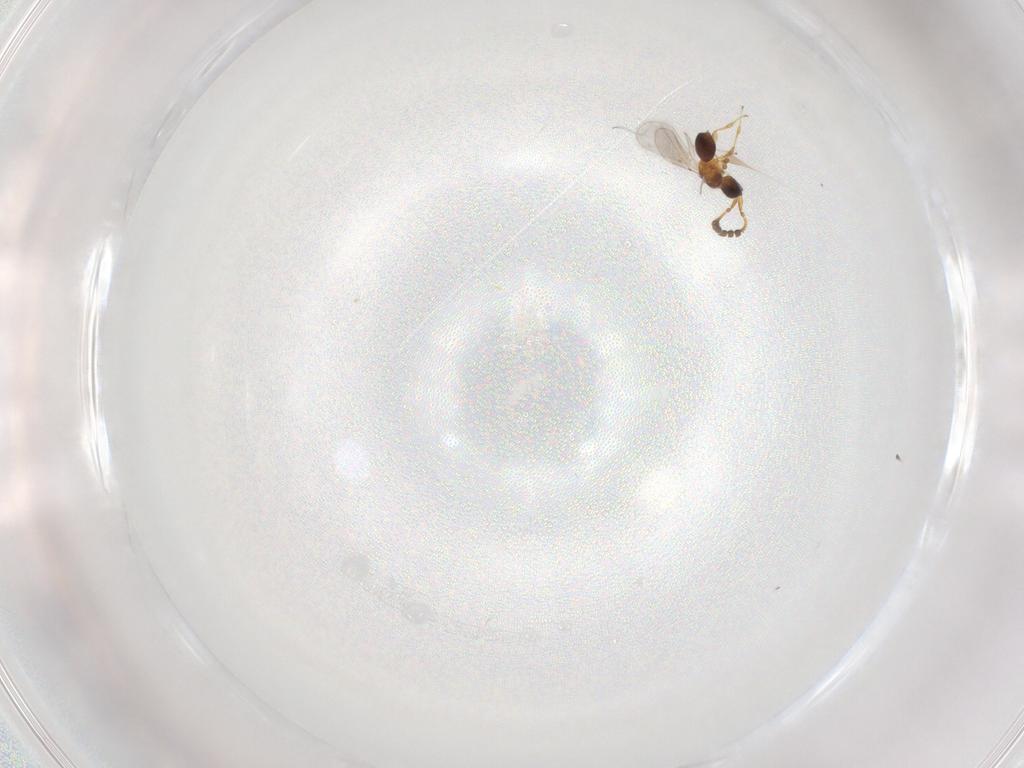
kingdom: Animalia
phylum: Arthropoda
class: Insecta
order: Hymenoptera
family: Diapriidae
